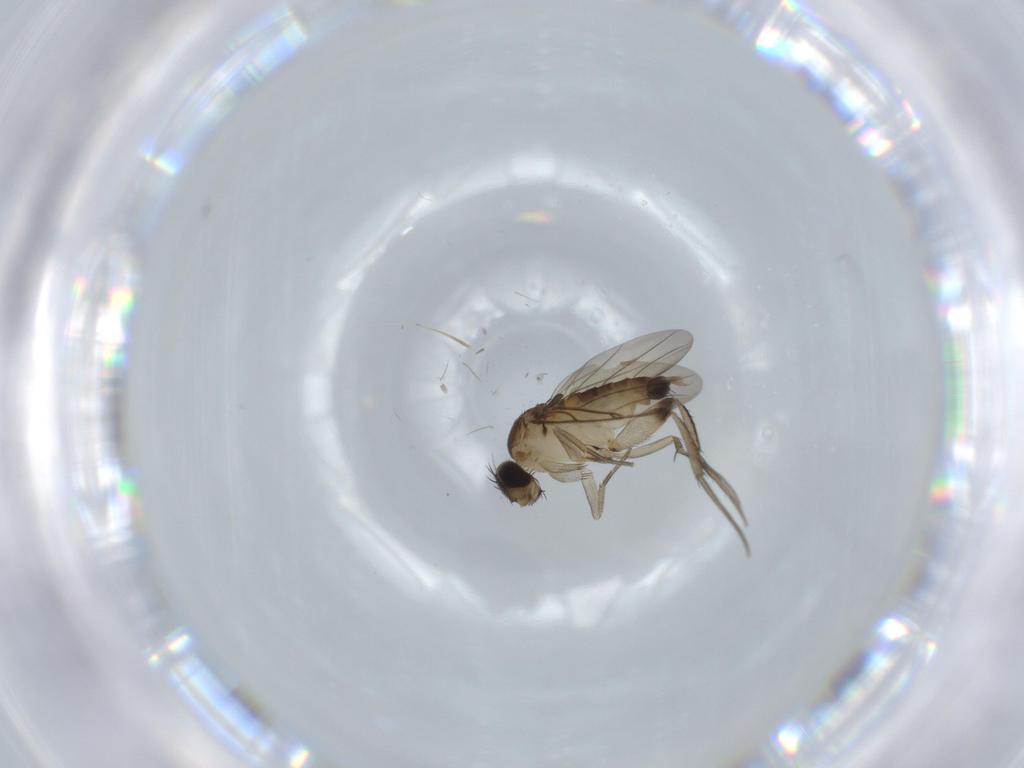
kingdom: Animalia
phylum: Arthropoda
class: Insecta
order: Diptera
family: Phoridae
